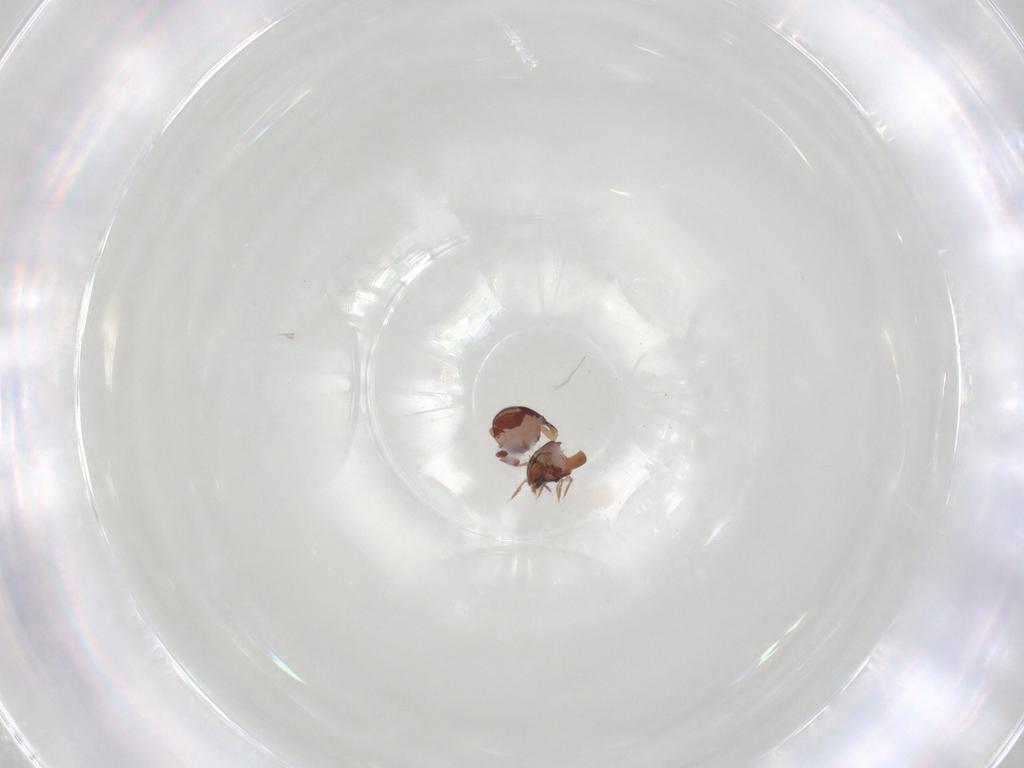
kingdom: Animalia
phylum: Arthropoda
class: Arachnida
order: Sarcoptiformes
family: Galumnidae
